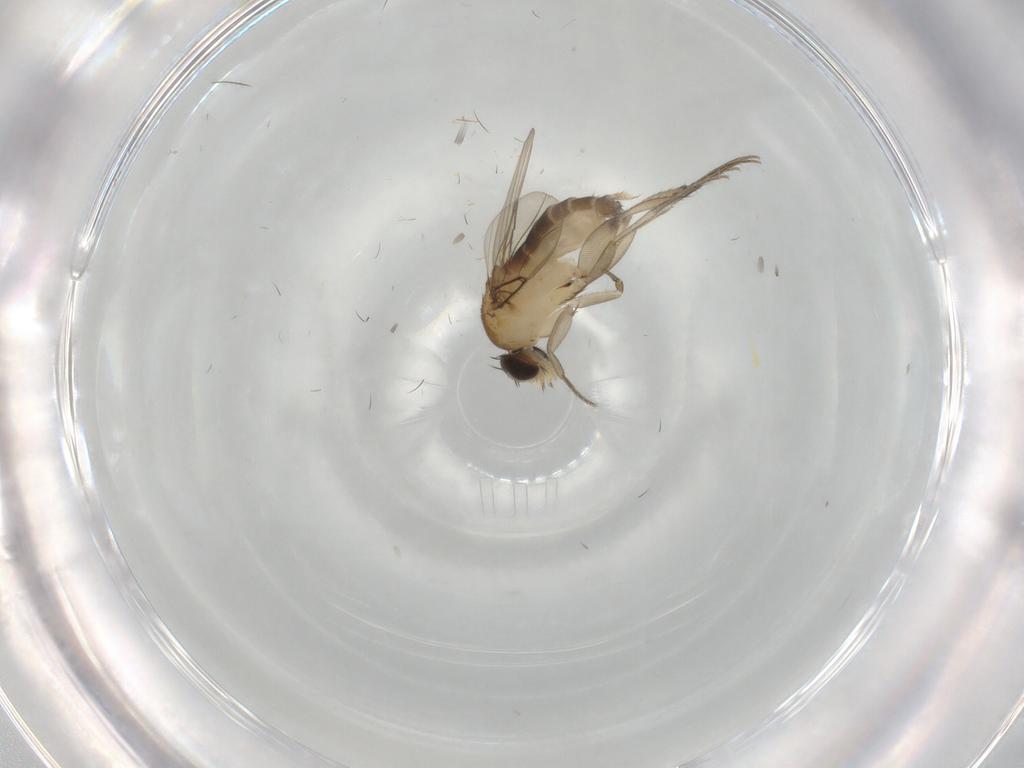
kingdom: Animalia
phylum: Arthropoda
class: Insecta
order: Diptera
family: Phoridae
